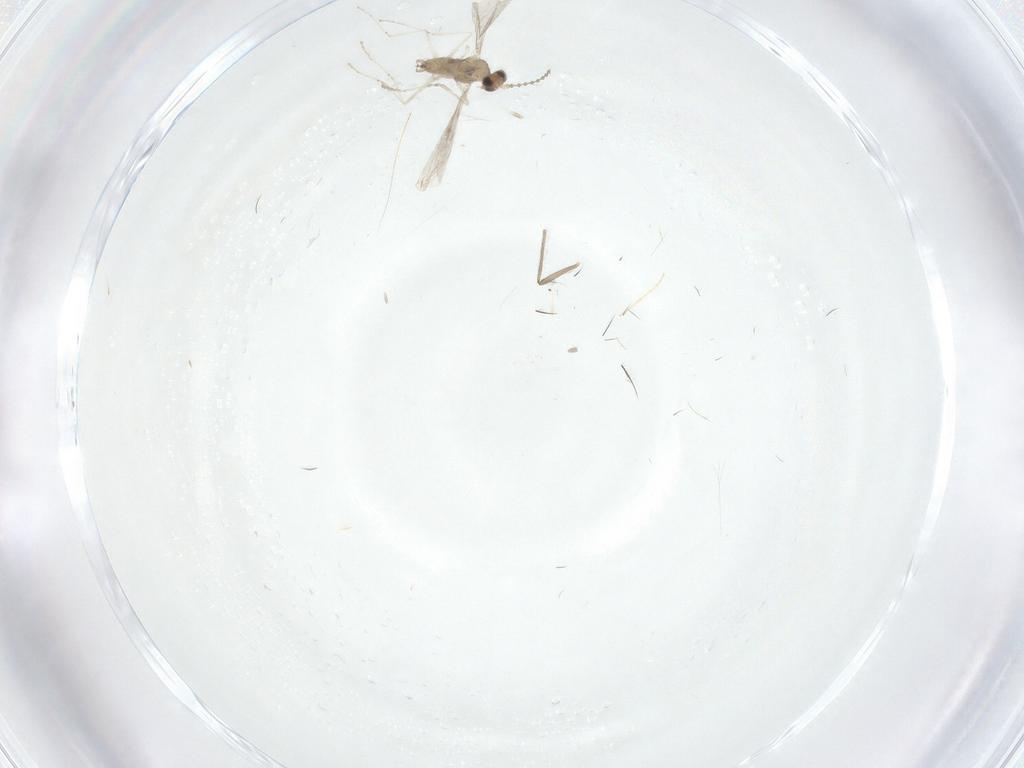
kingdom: Animalia
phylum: Arthropoda
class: Insecta
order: Diptera
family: Chironomidae
